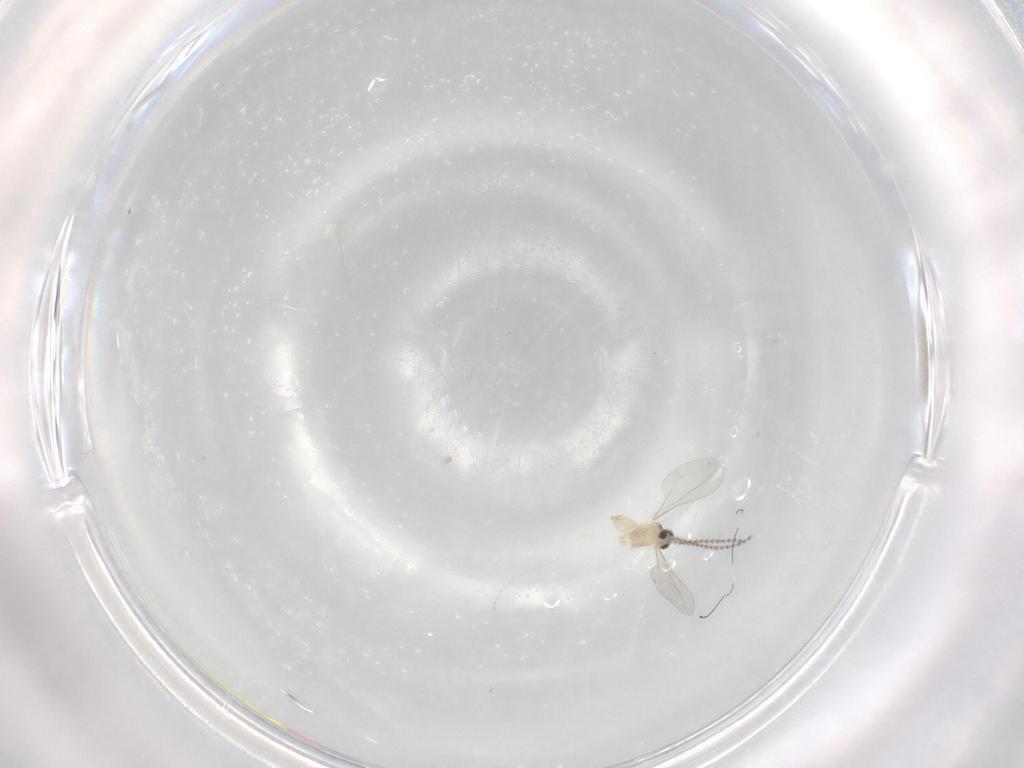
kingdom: Animalia
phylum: Arthropoda
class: Insecta
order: Diptera
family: Cecidomyiidae
